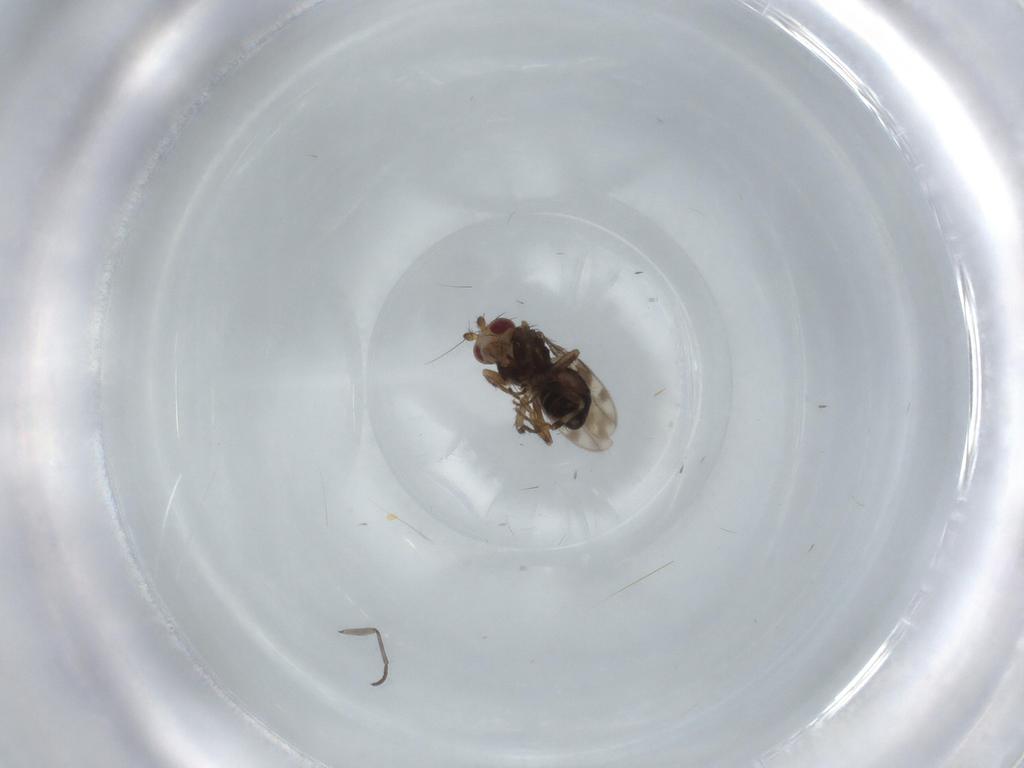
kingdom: Animalia
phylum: Arthropoda
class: Insecta
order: Diptera
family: Sphaeroceridae
